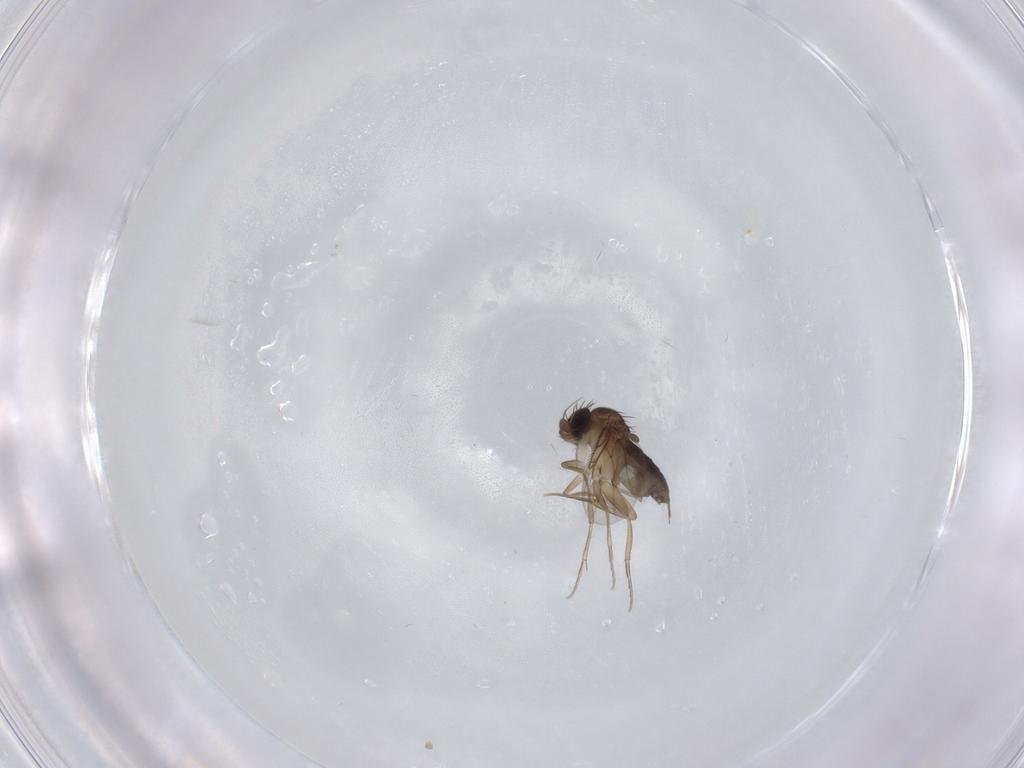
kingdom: Animalia
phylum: Arthropoda
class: Insecta
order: Diptera
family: Phoridae
